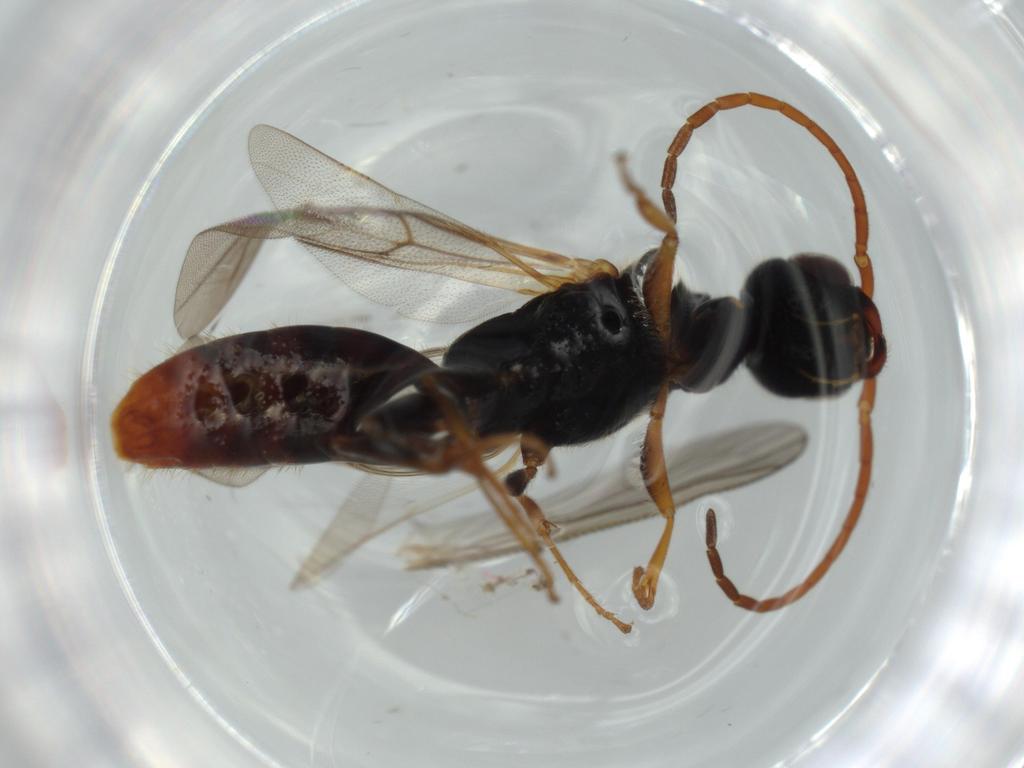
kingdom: Animalia
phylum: Arthropoda
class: Insecta
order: Hymenoptera
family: Bethylidae
